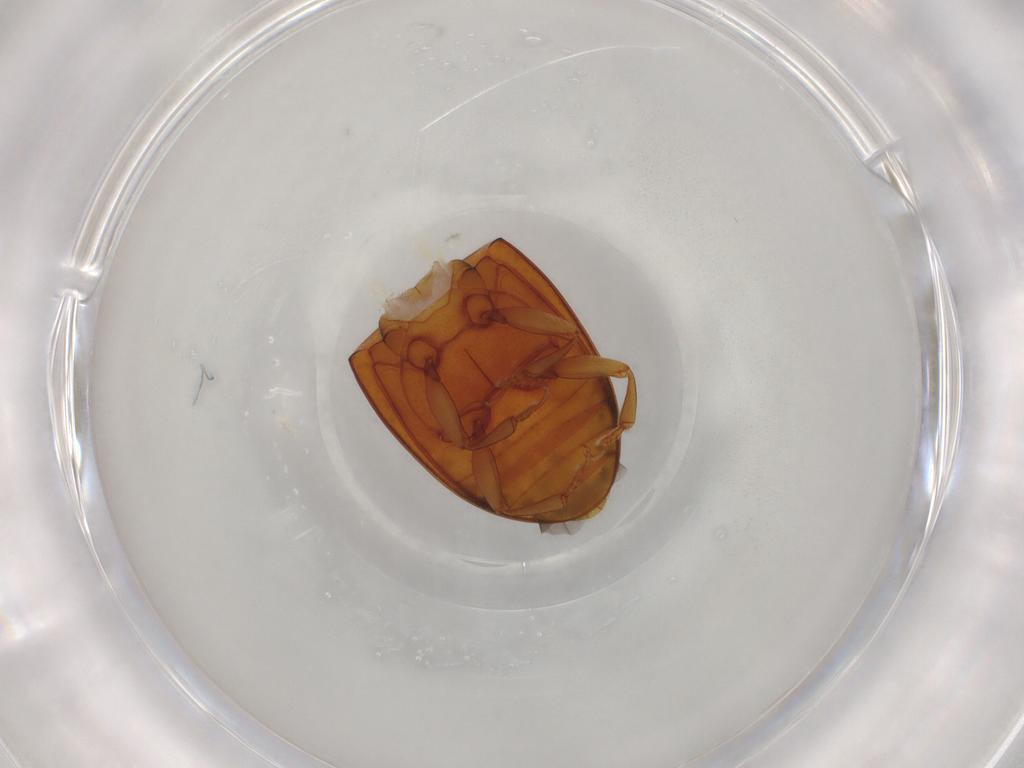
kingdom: Animalia
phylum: Arthropoda
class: Insecta
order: Coleoptera
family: Erotylidae
